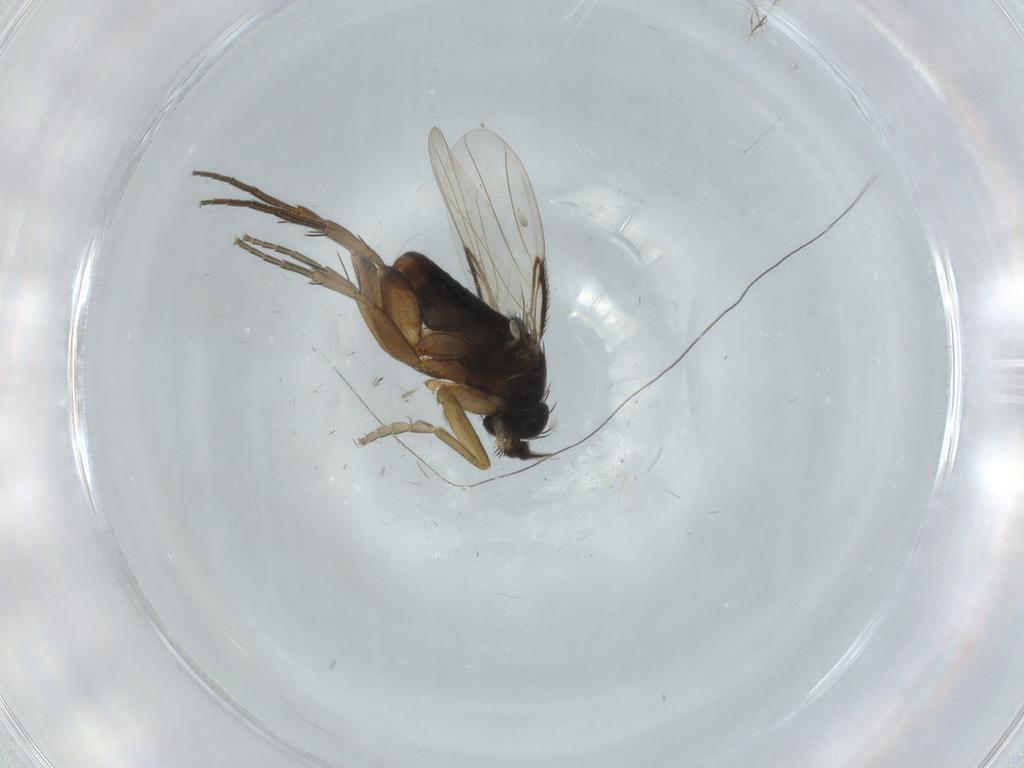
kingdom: Animalia
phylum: Arthropoda
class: Insecta
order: Diptera
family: Phoridae
